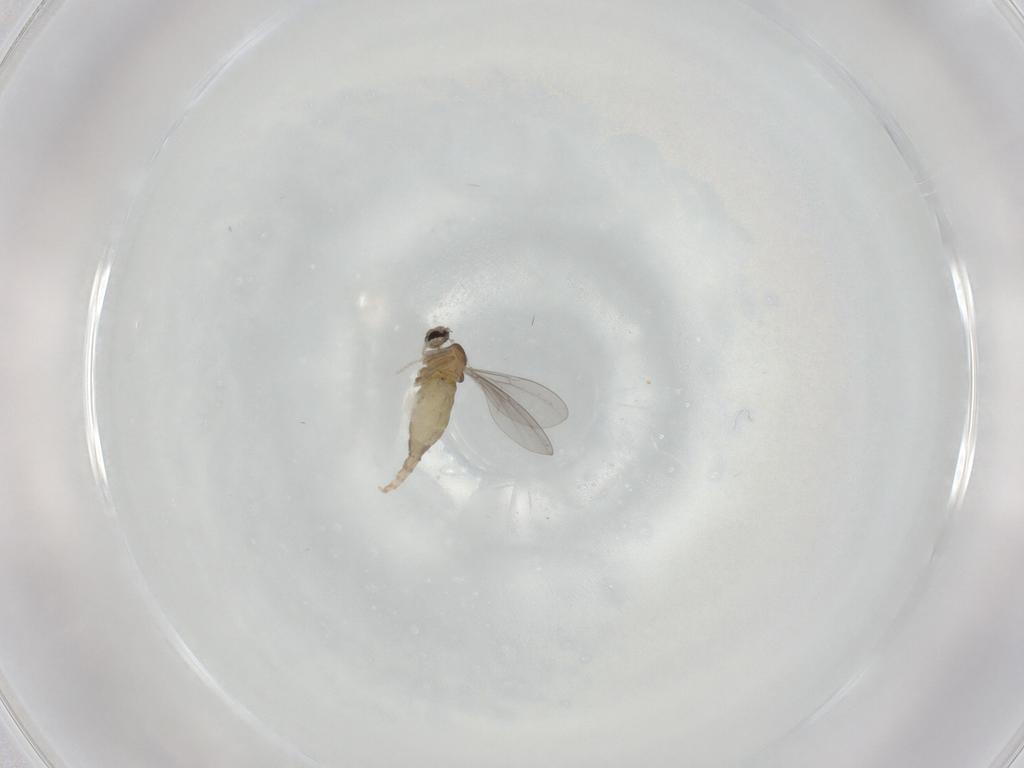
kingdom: Animalia
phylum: Arthropoda
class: Insecta
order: Diptera
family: Cecidomyiidae
